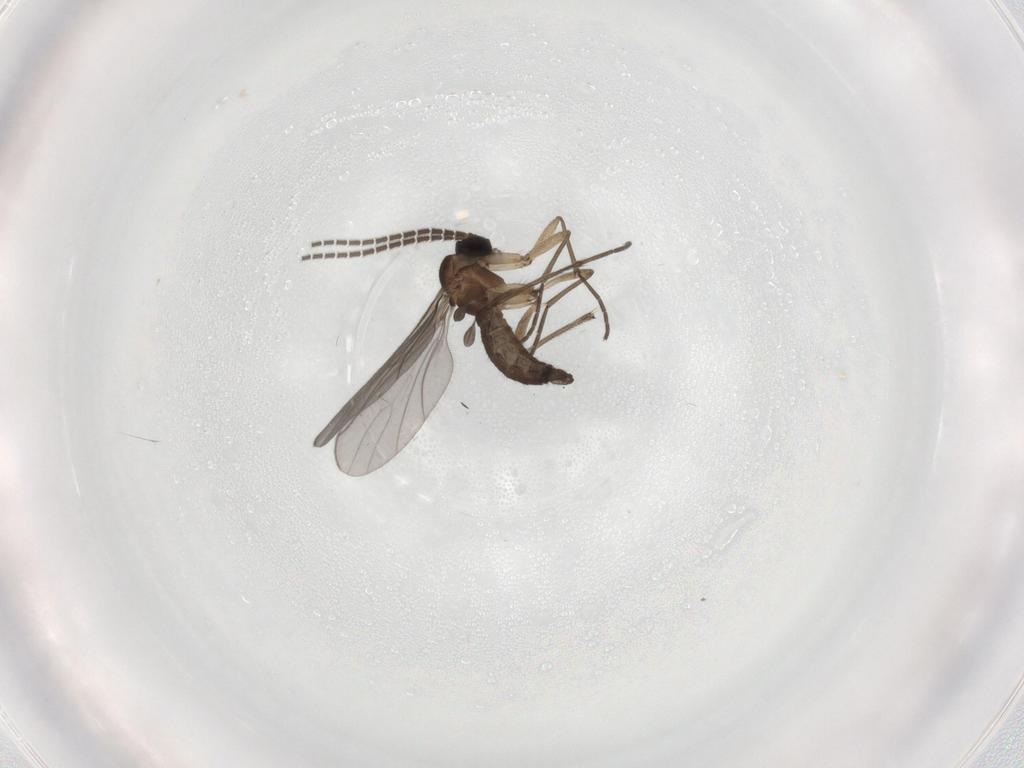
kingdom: Animalia
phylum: Arthropoda
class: Insecta
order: Diptera
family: Sciaridae
